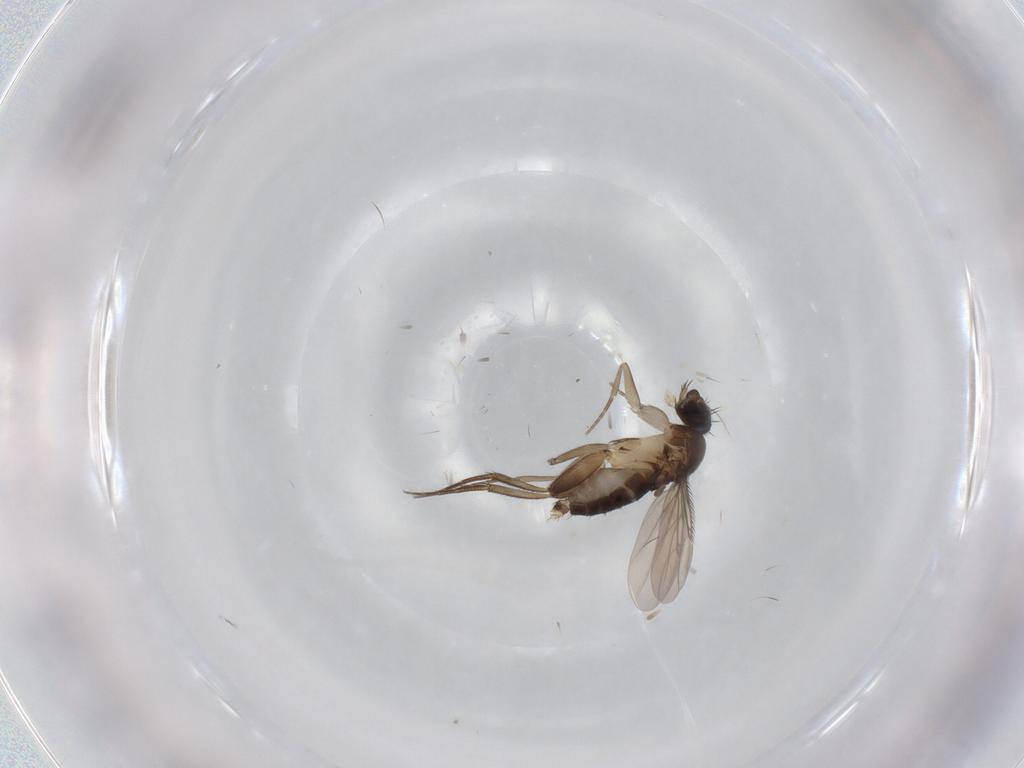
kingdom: Animalia
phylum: Arthropoda
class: Insecta
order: Diptera
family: Phoridae
